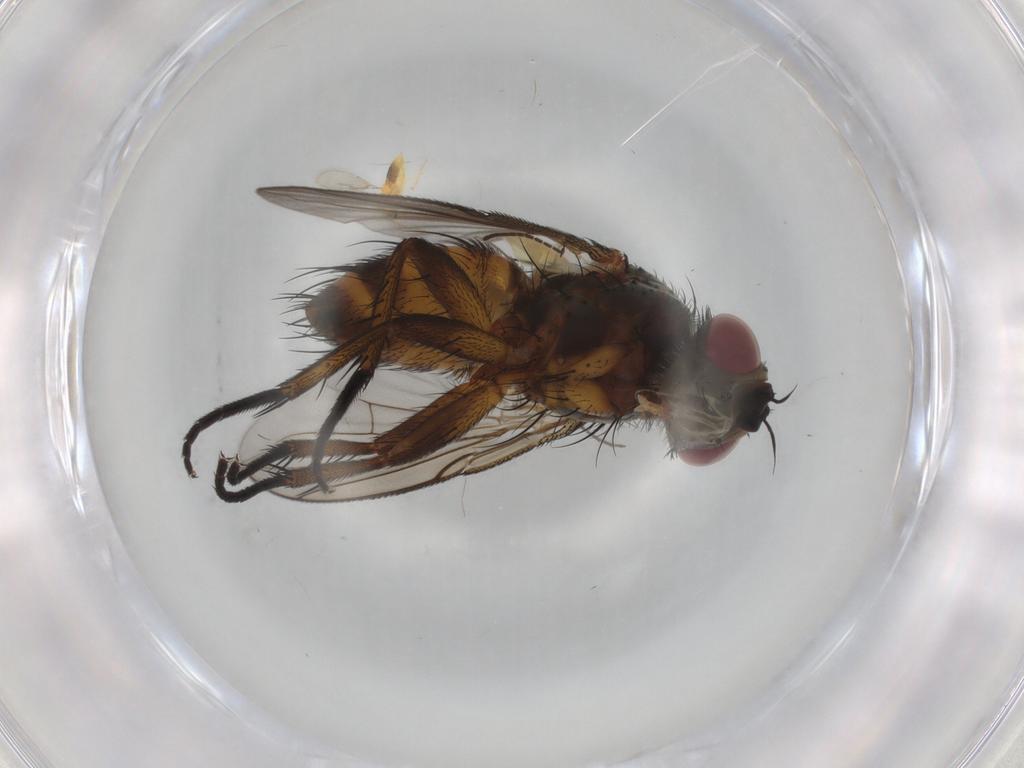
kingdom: Animalia
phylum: Arthropoda
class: Insecta
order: Diptera
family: Tachinidae
